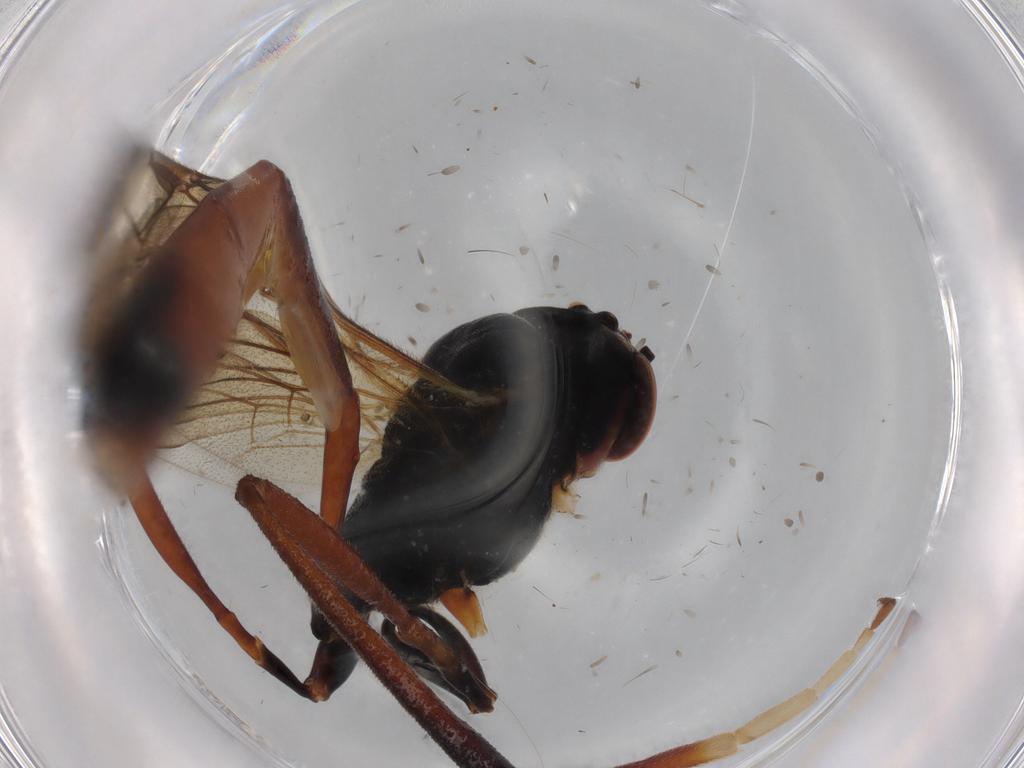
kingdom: Animalia
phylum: Arthropoda
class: Insecta
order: Hymenoptera
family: Ichneumonidae
